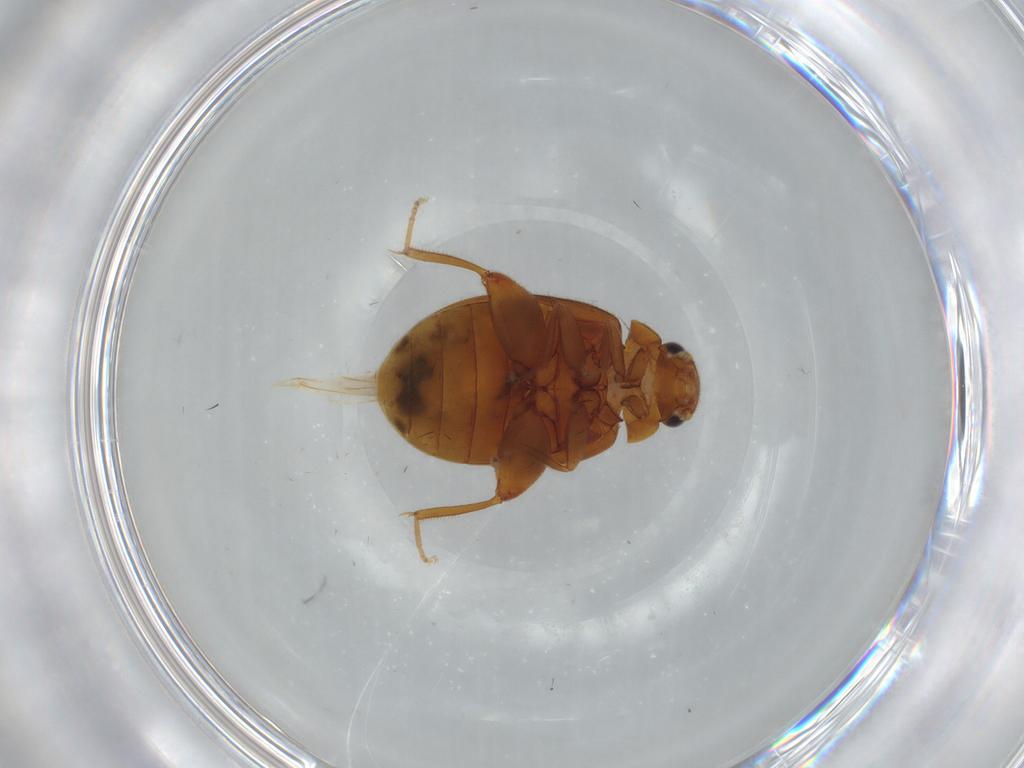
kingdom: Animalia
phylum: Arthropoda
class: Insecta
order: Coleoptera
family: Scirtidae
